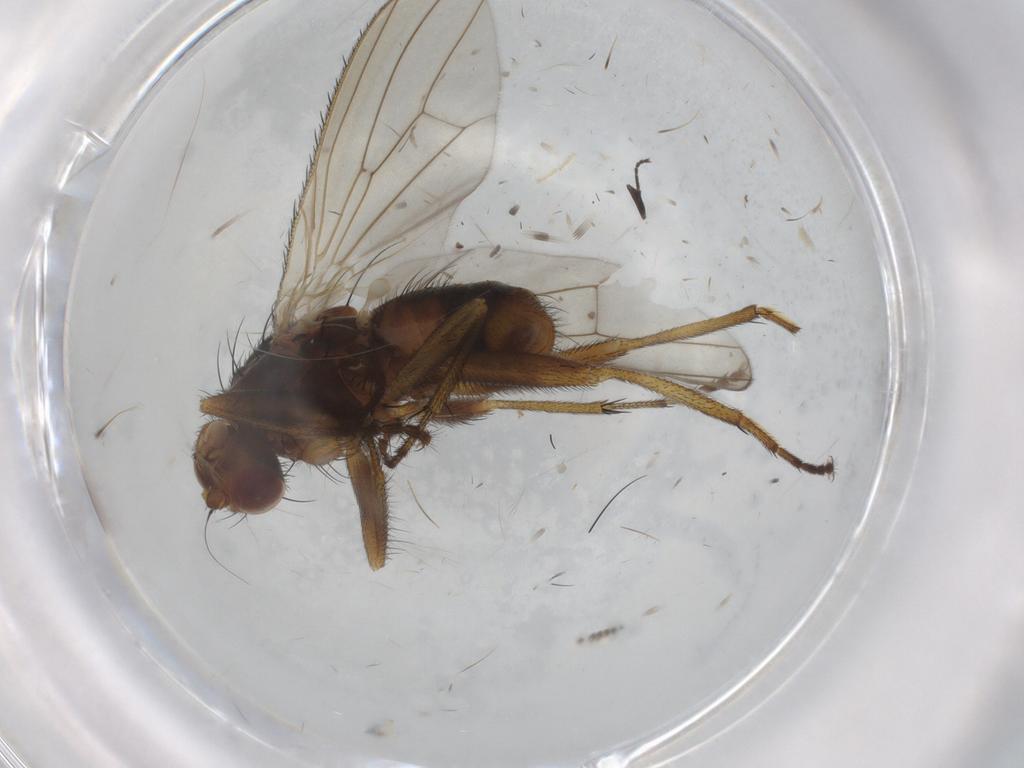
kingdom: Animalia
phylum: Arthropoda
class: Insecta
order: Diptera
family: Heleomyzidae
